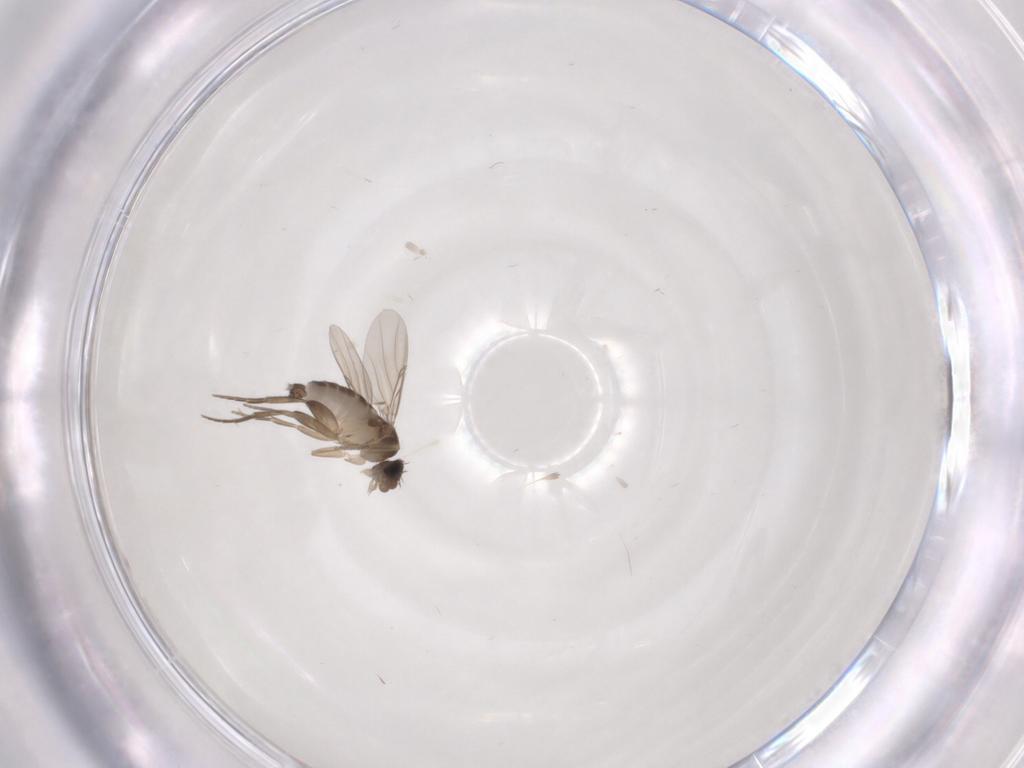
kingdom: Animalia
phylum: Arthropoda
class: Insecta
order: Diptera
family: Phoridae
